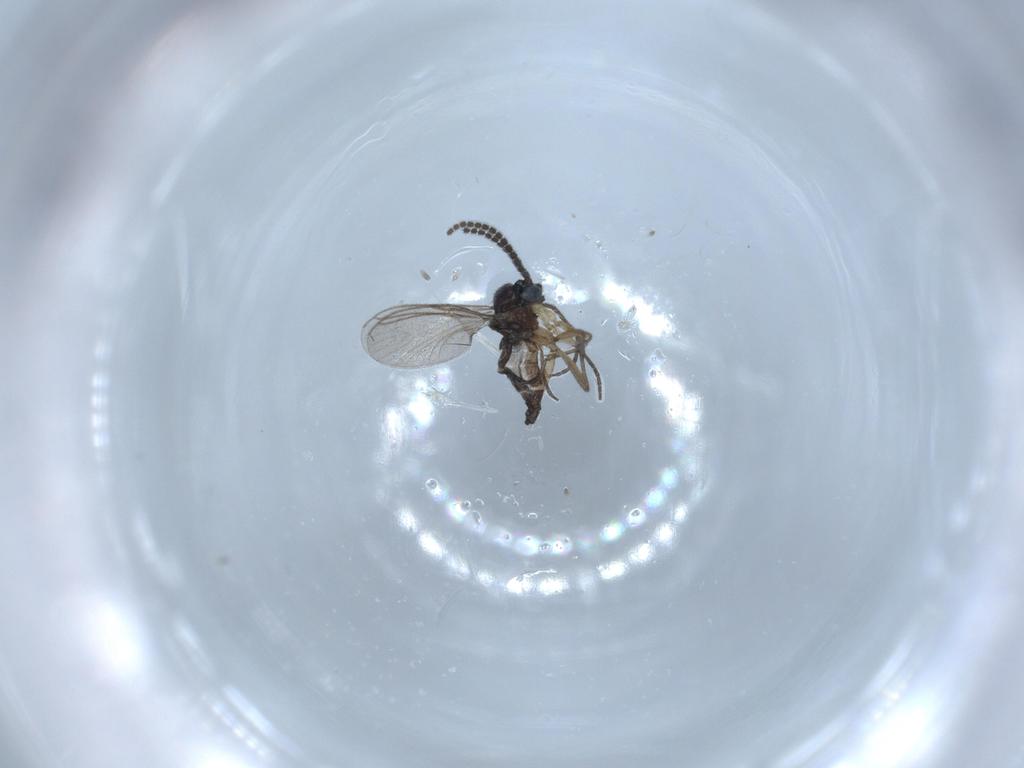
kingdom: Animalia
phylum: Arthropoda
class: Insecta
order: Diptera
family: Sciaridae
